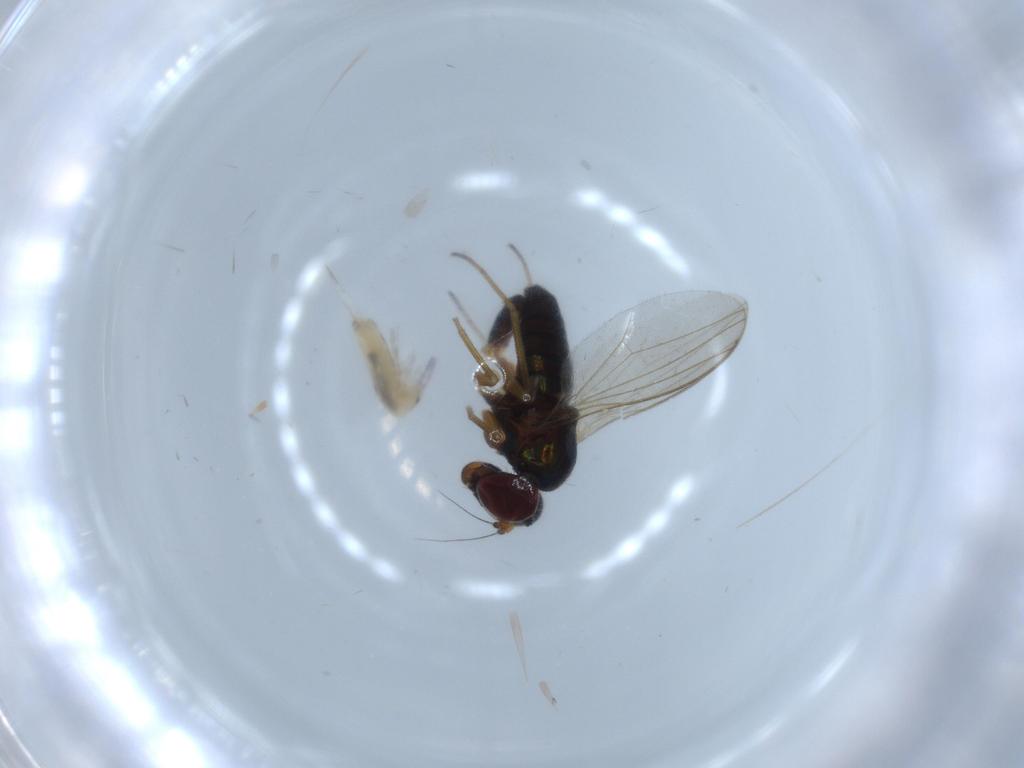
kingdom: Animalia
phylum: Arthropoda
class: Insecta
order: Diptera
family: Dolichopodidae
